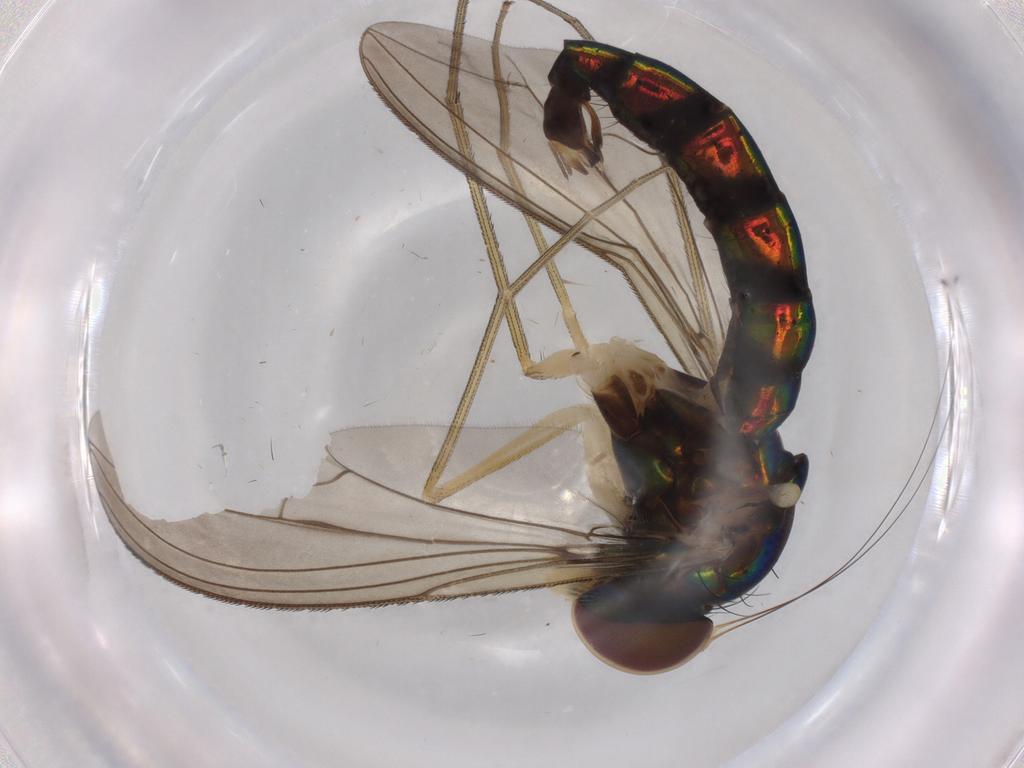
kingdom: Animalia
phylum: Arthropoda
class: Insecta
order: Diptera
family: Dolichopodidae
